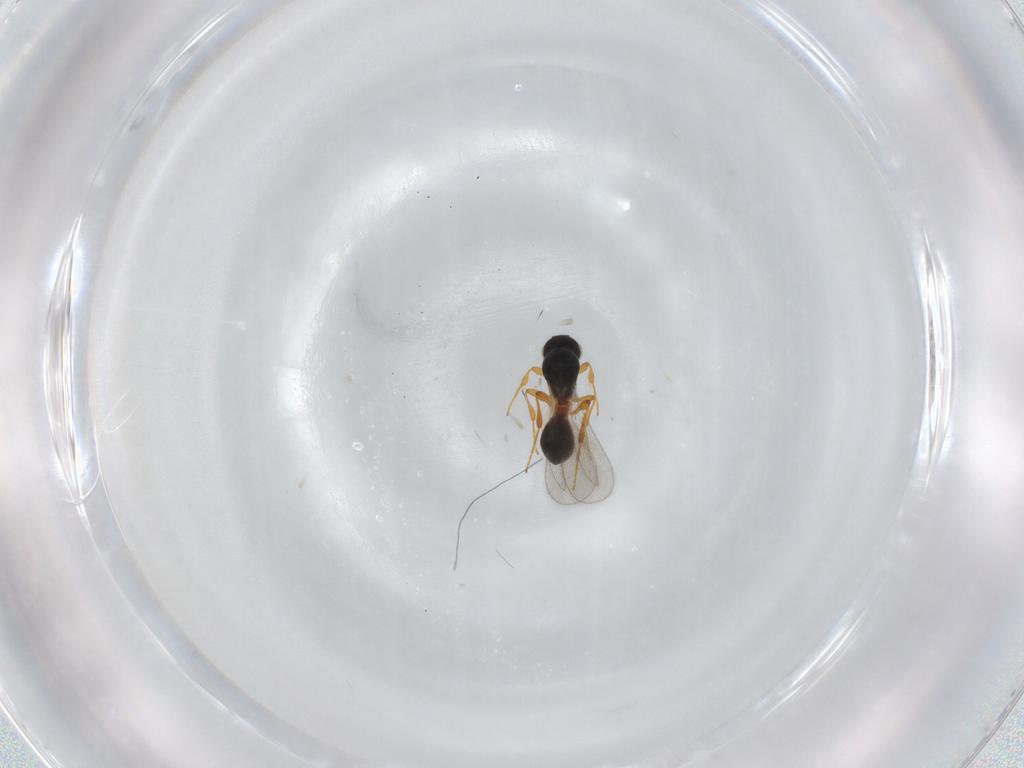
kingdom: Animalia
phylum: Arthropoda
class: Insecta
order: Hymenoptera
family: Platygastridae
